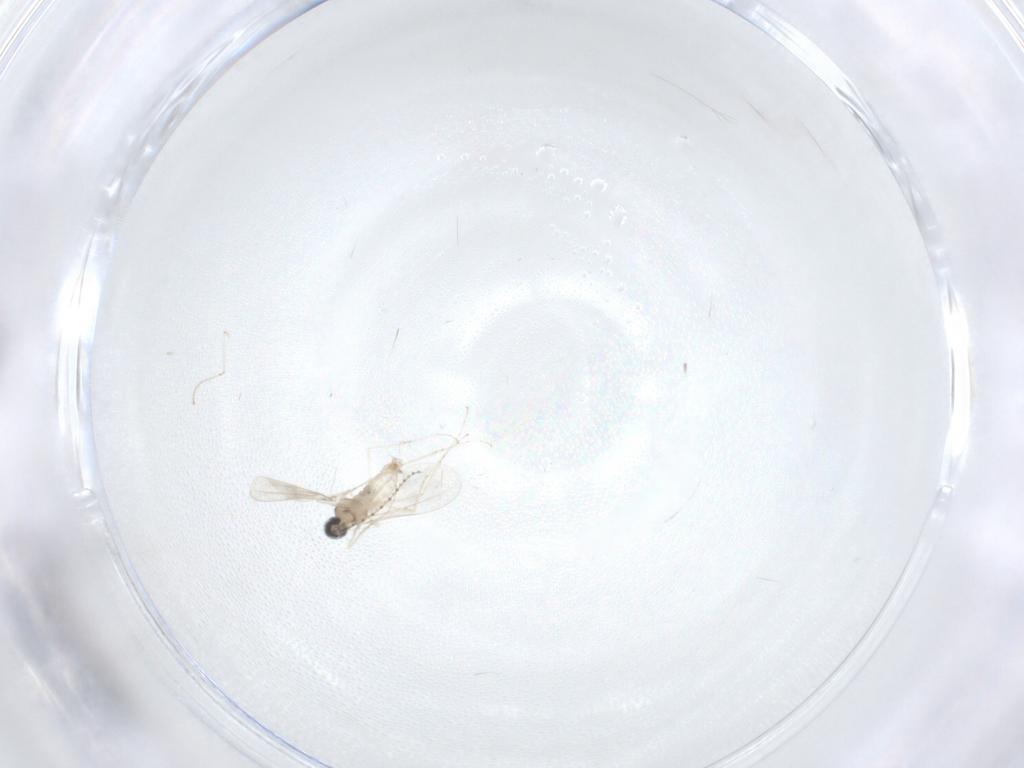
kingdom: Animalia
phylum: Arthropoda
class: Insecta
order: Diptera
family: Cecidomyiidae
